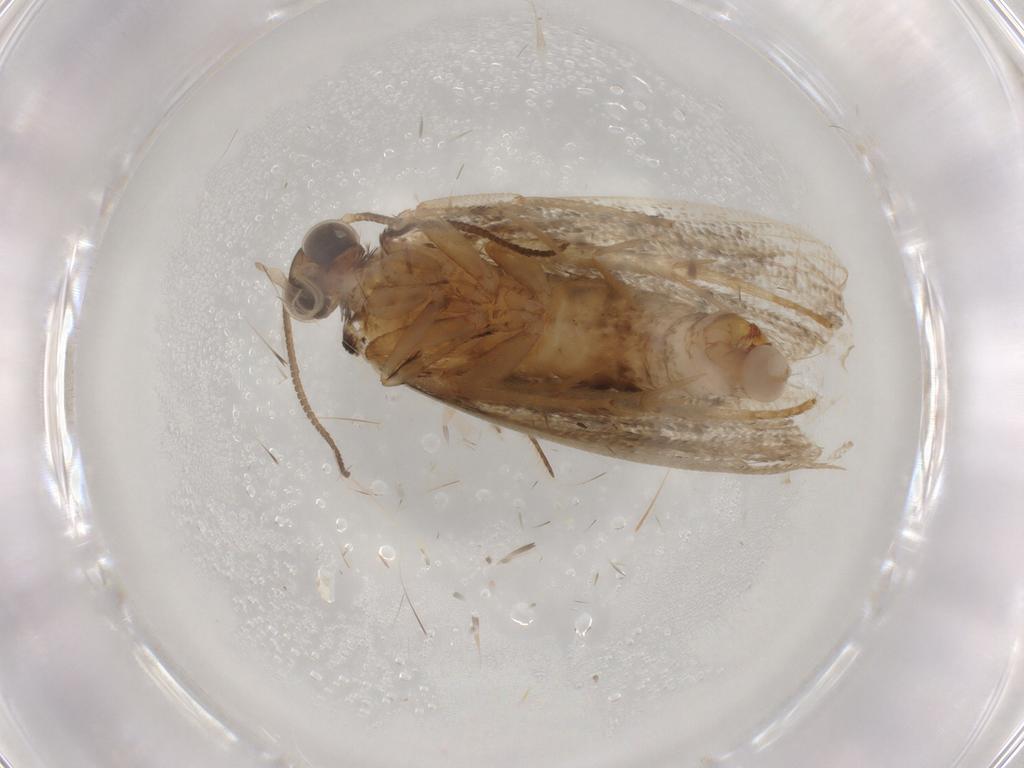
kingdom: Animalia
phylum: Arthropoda
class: Insecta
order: Lepidoptera
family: Tortricidae
